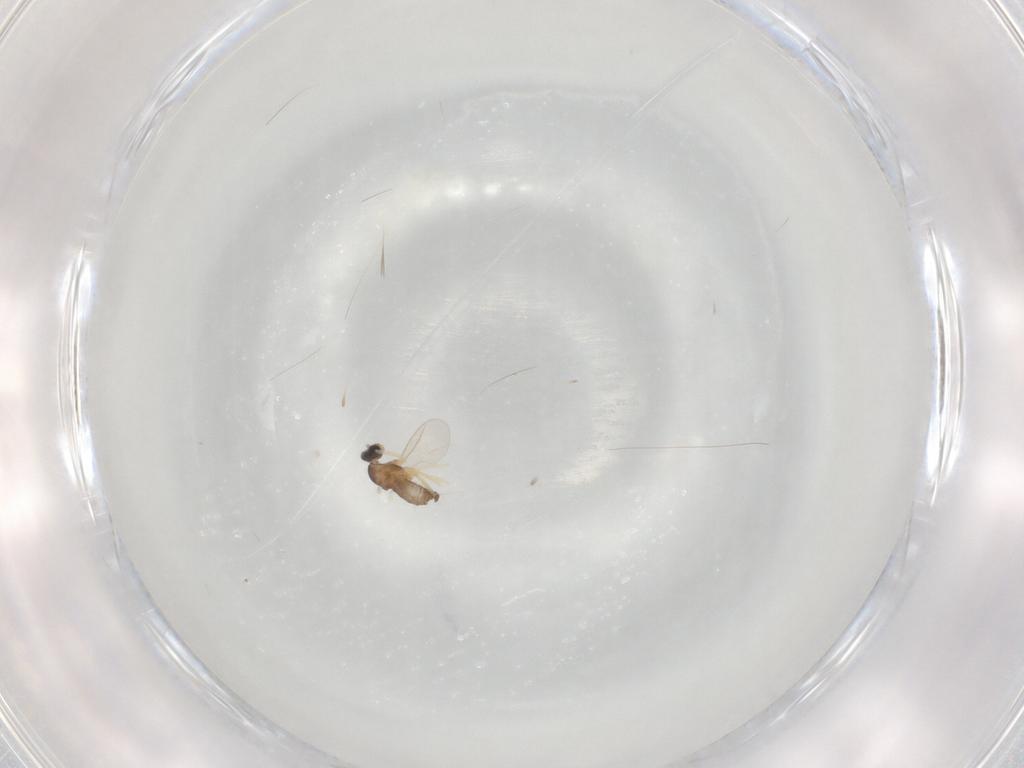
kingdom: Animalia
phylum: Arthropoda
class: Insecta
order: Diptera
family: Cecidomyiidae
